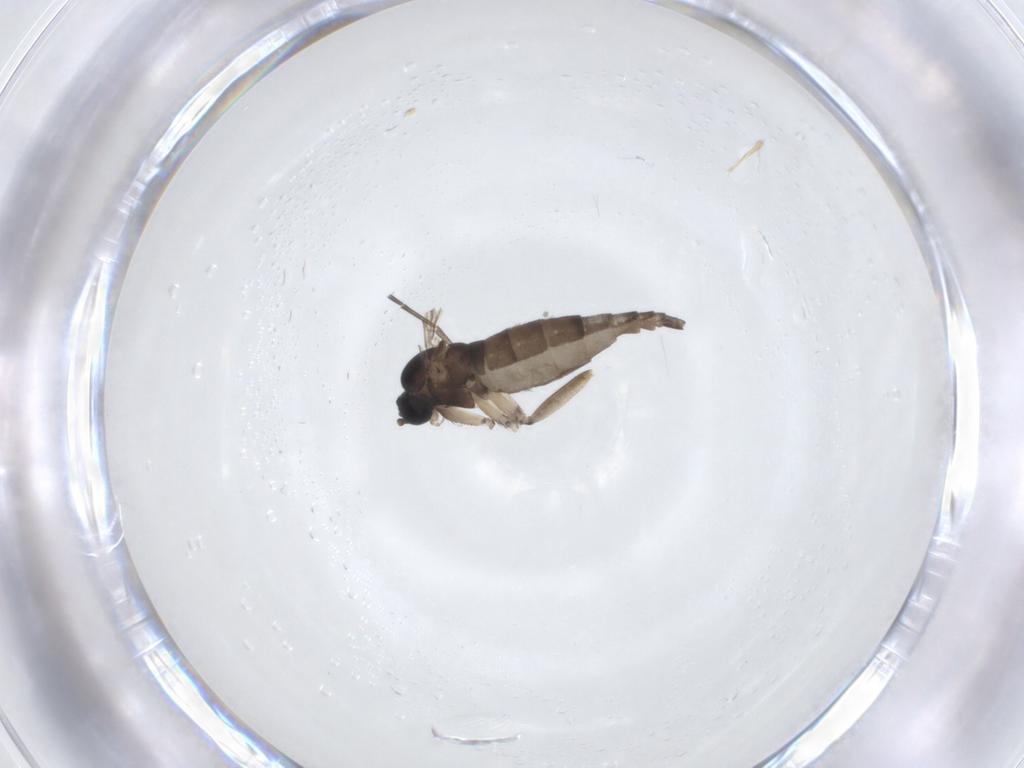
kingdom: Animalia
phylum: Arthropoda
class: Insecta
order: Diptera
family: Sciaridae
